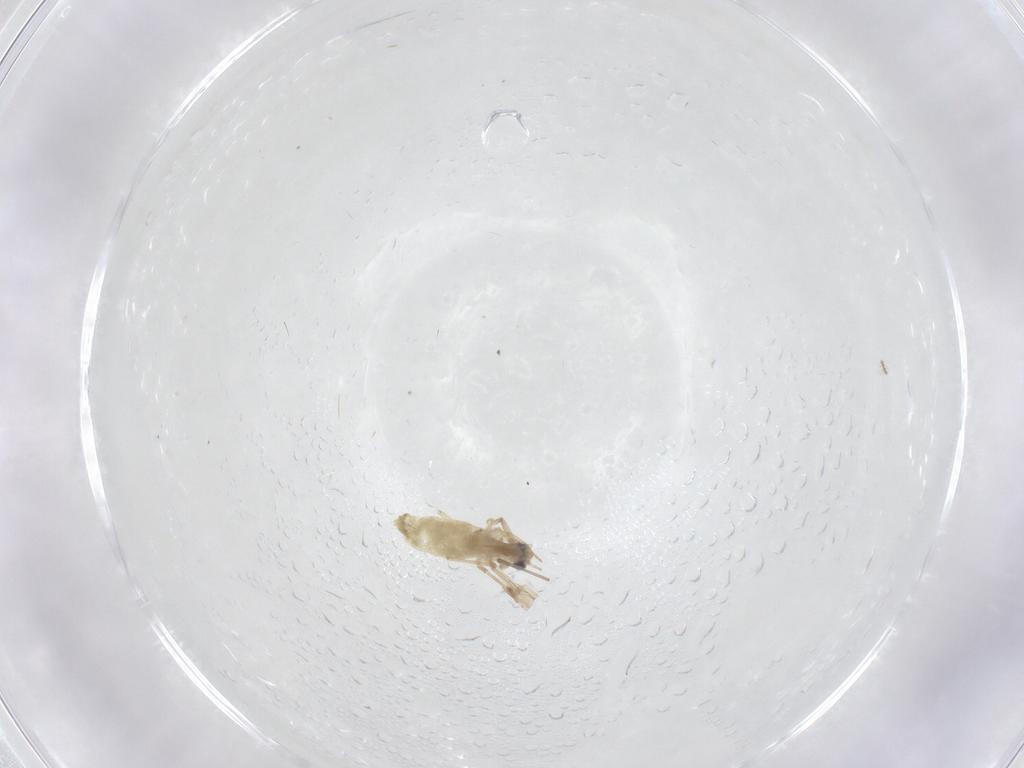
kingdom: Animalia
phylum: Arthropoda
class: Insecta
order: Diptera
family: Chironomidae
